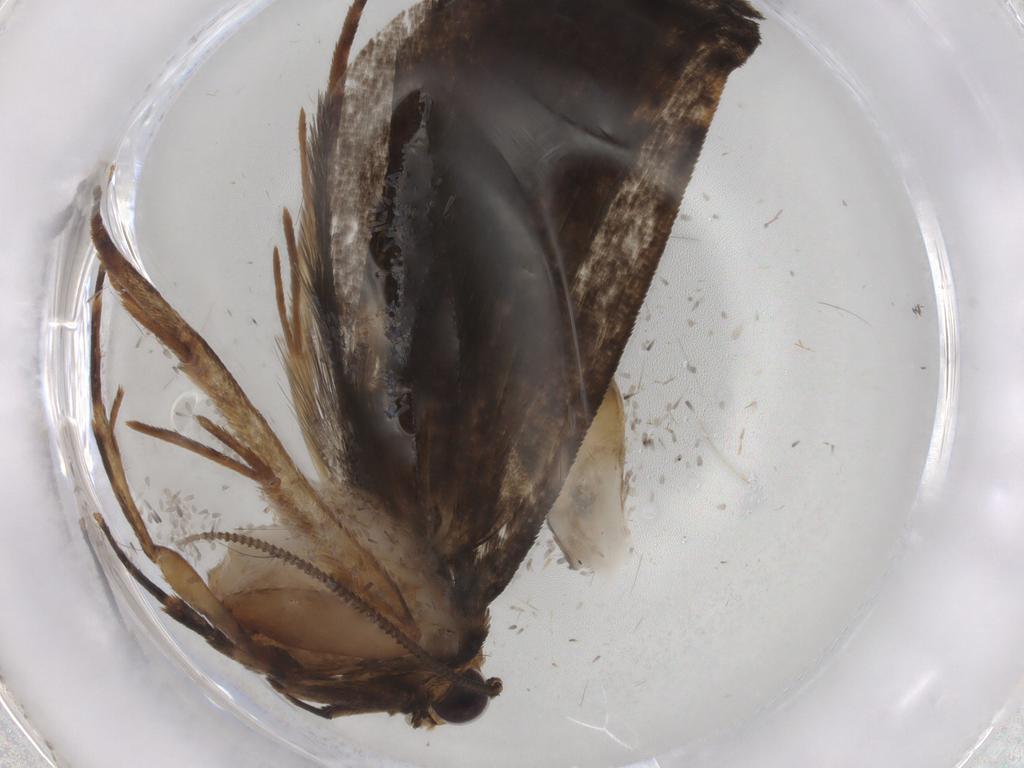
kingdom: Animalia
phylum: Arthropoda
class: Insecta
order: Lepidoptera
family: Tineidae
